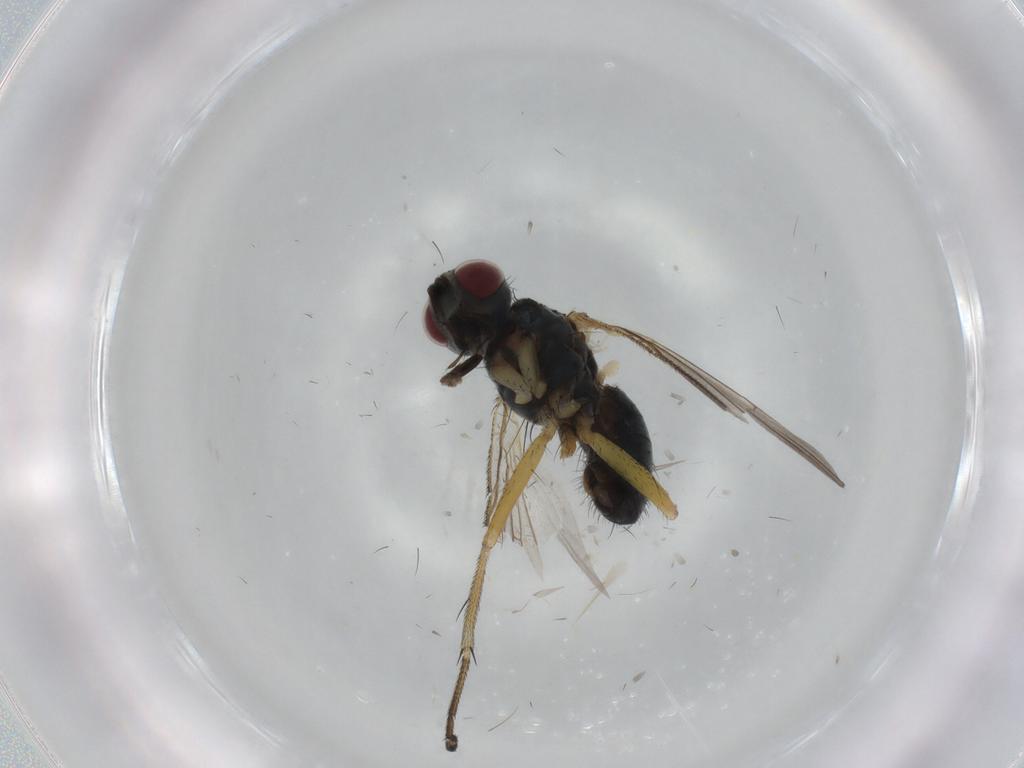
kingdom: Animalia
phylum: Arthropoda
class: Insecta
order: Diptera
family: Muscidae
